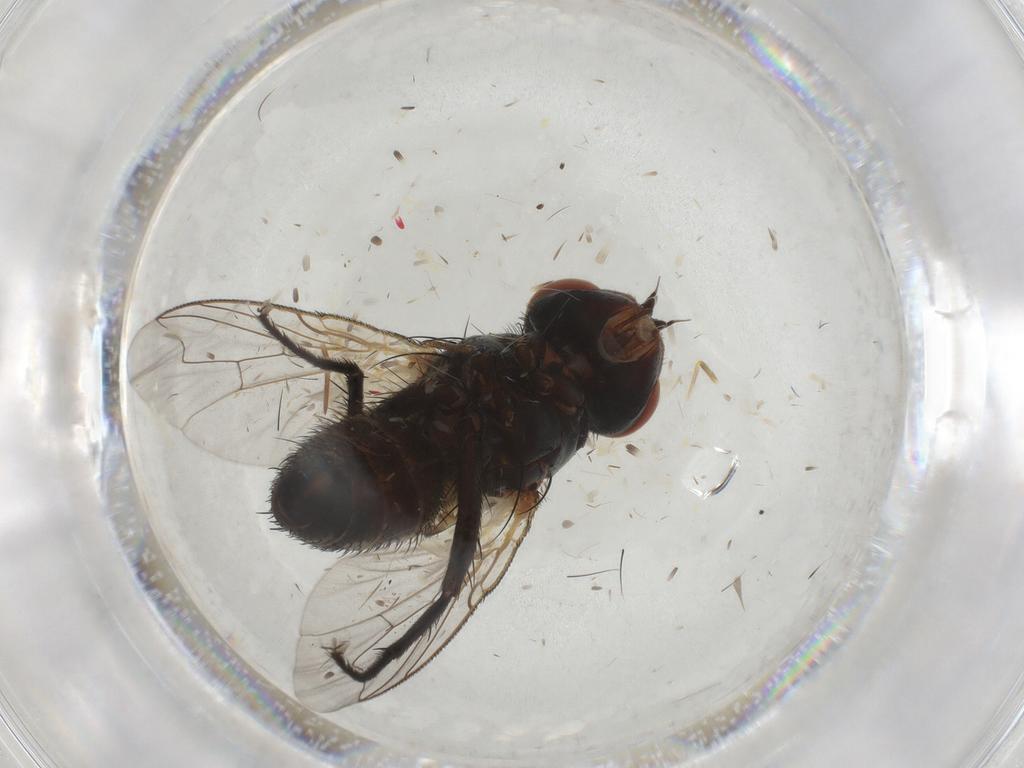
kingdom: Animalia
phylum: Arthropoda
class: Insecta
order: Diptera
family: Sarcophagidae
